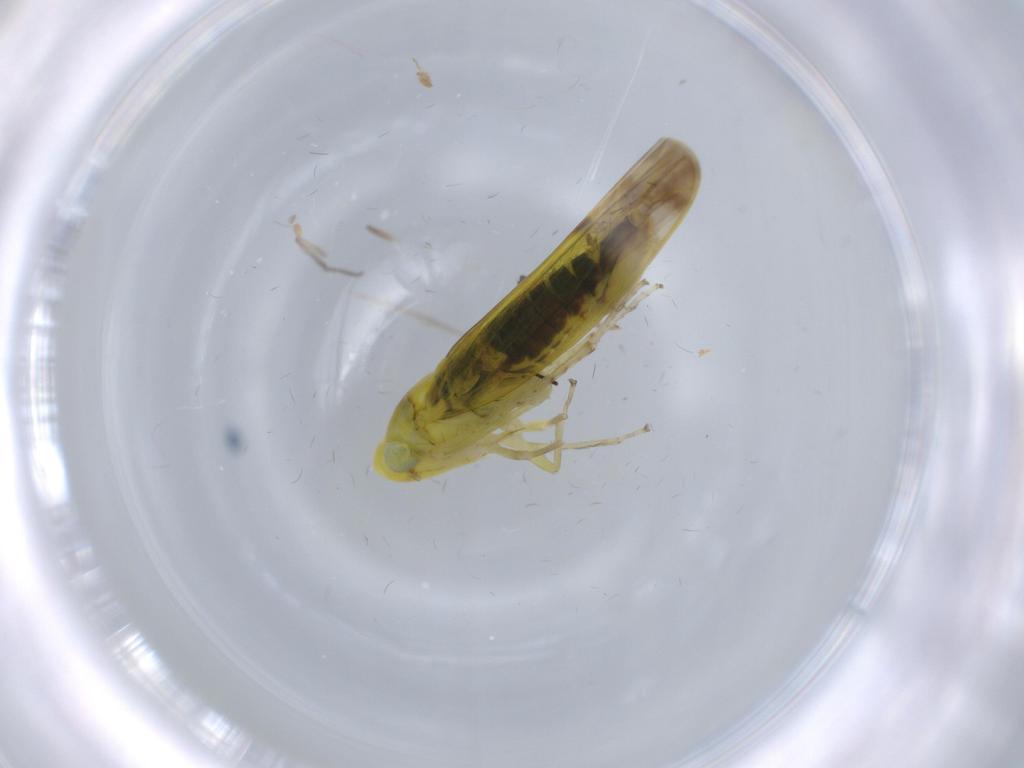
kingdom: Animalia
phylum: Arthropoda
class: Insecta
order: Hemiptera
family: Cicadellidae
